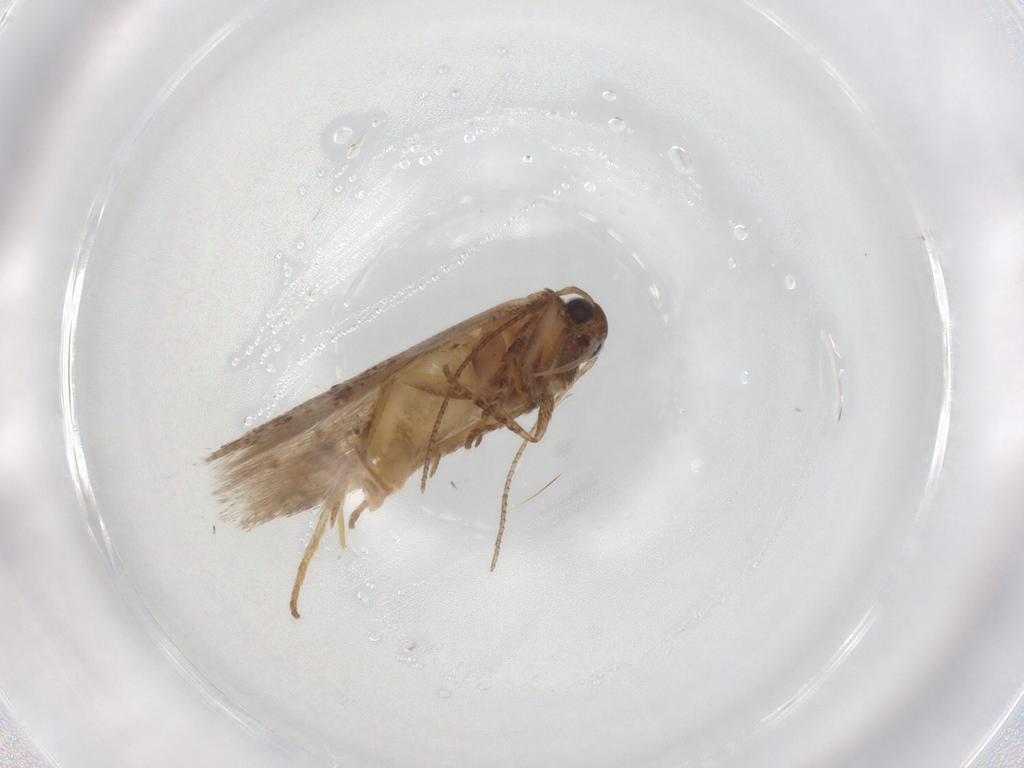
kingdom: Animalia
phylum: Arthropoda
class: Insecta
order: Lepidoptera
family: Gelechiidae
